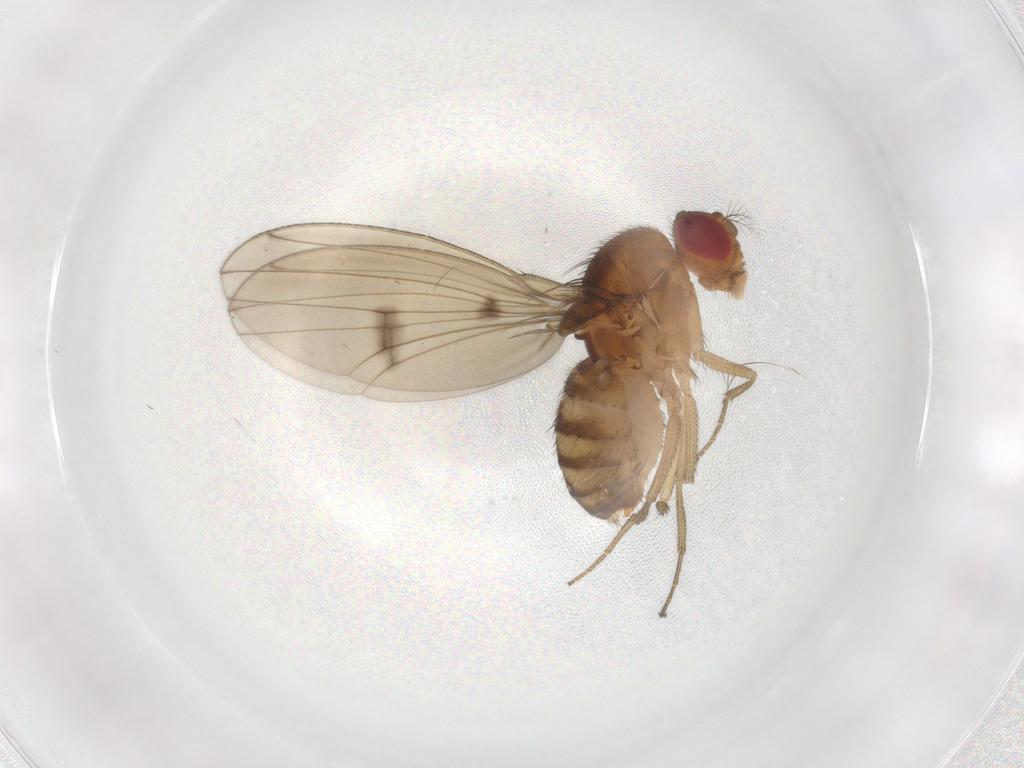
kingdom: Animalia
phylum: Arthropoda
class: Insecta
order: Diptera
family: Drosophilidae
